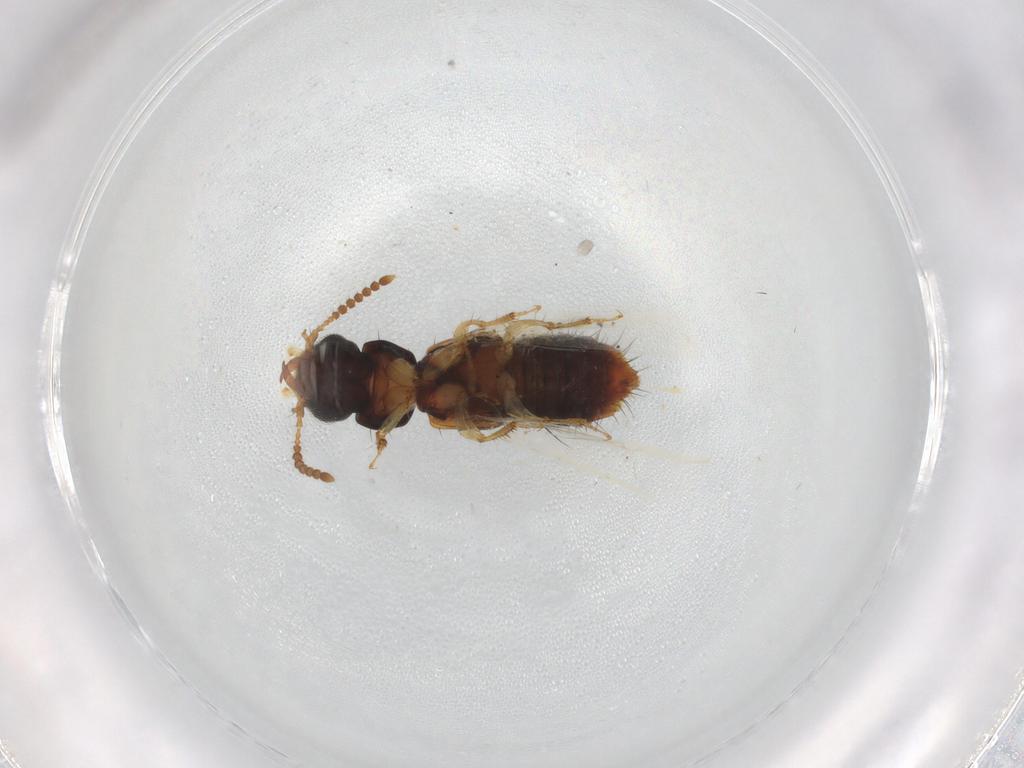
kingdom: Animalia
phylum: Arthropoda
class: Insecta
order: Coleoptera
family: Staphylinidae
